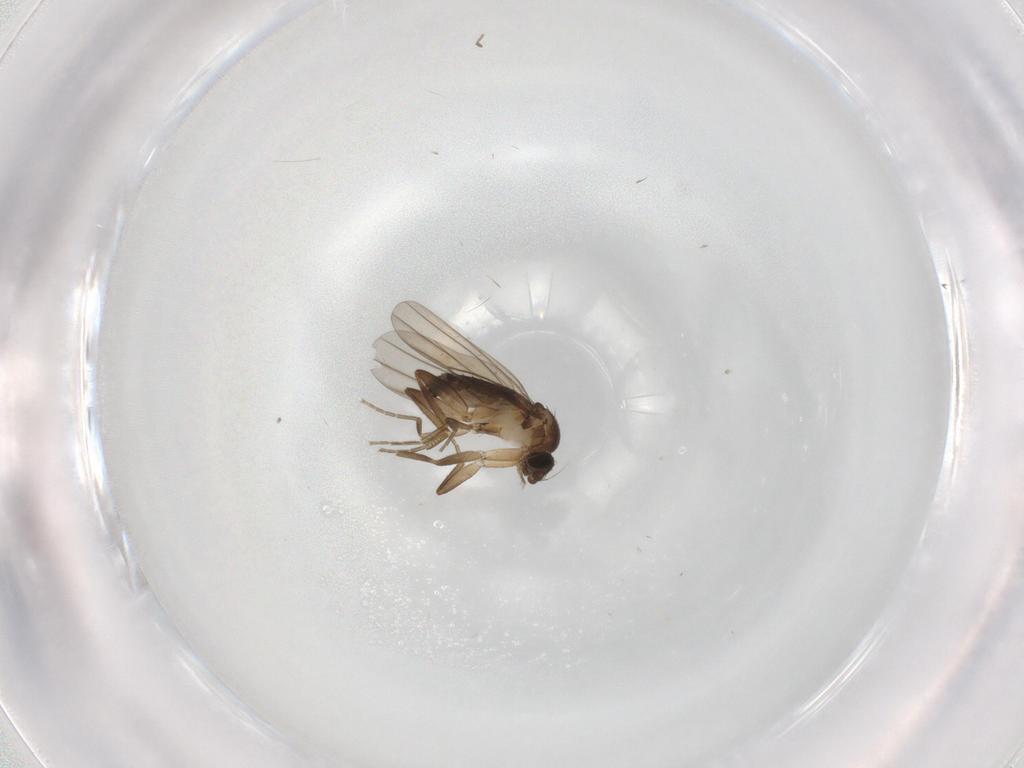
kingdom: Animalia
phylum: Arthropoda
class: Insecta
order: Diptera
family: Phoridae
